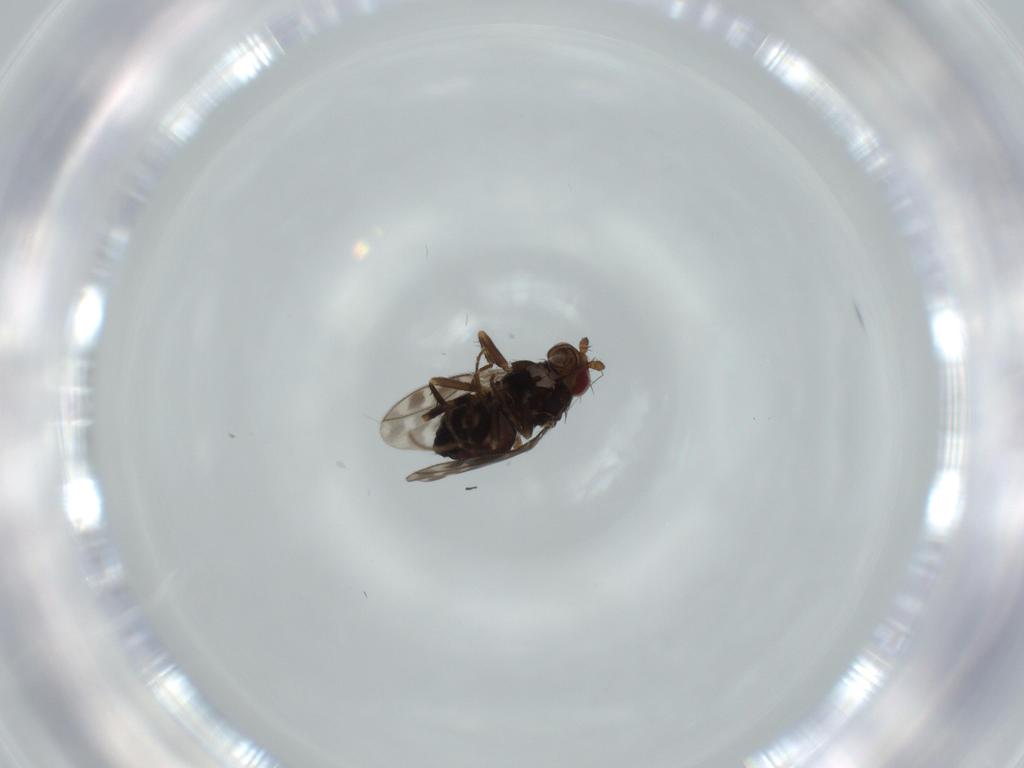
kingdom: Animalia
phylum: Arthropoda
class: Insecta
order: Diptera
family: Sphaeroceridae
